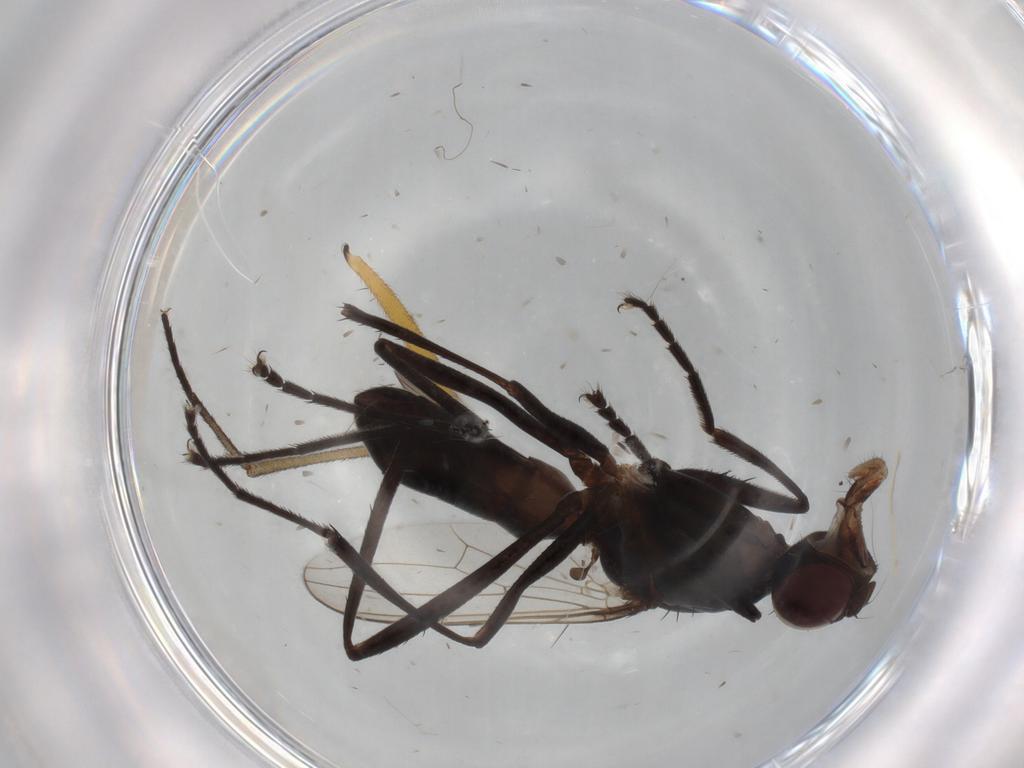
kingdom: Animalia
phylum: Arthropoda
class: Insecta
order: Diptera
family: Sciaridae
